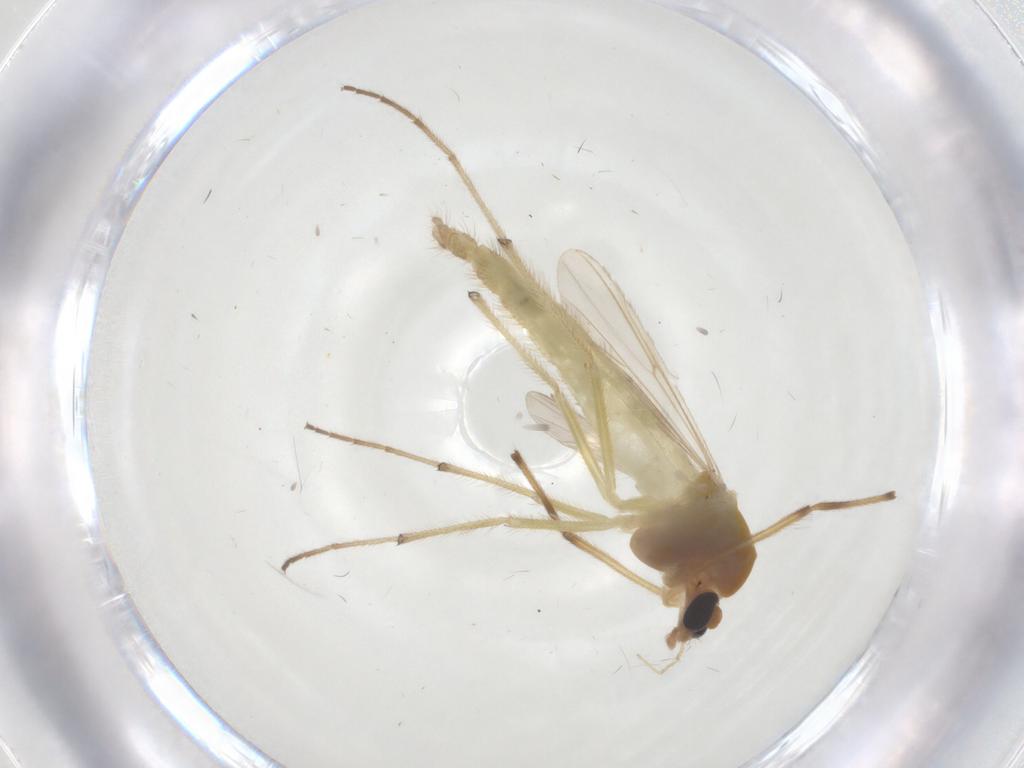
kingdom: Animalia
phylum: Arthropoda
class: Insecta
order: Diptera
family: Chironomidae
